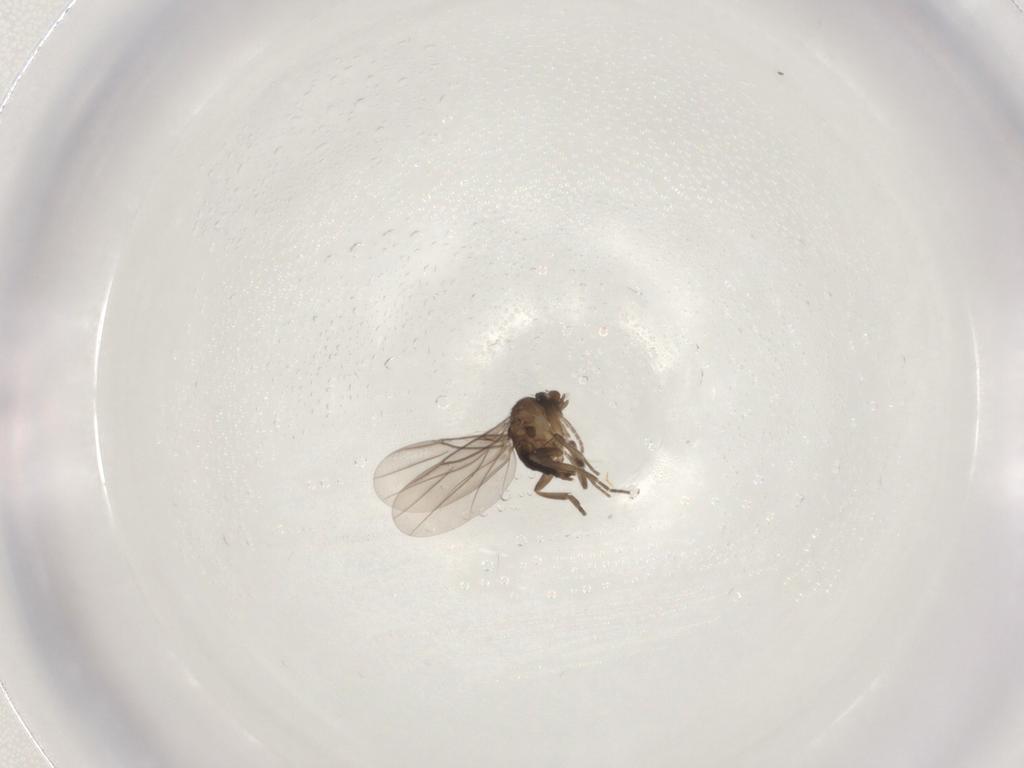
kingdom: Animalia
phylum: Arthropoda
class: Insecta
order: Diptera
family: Phoridae
